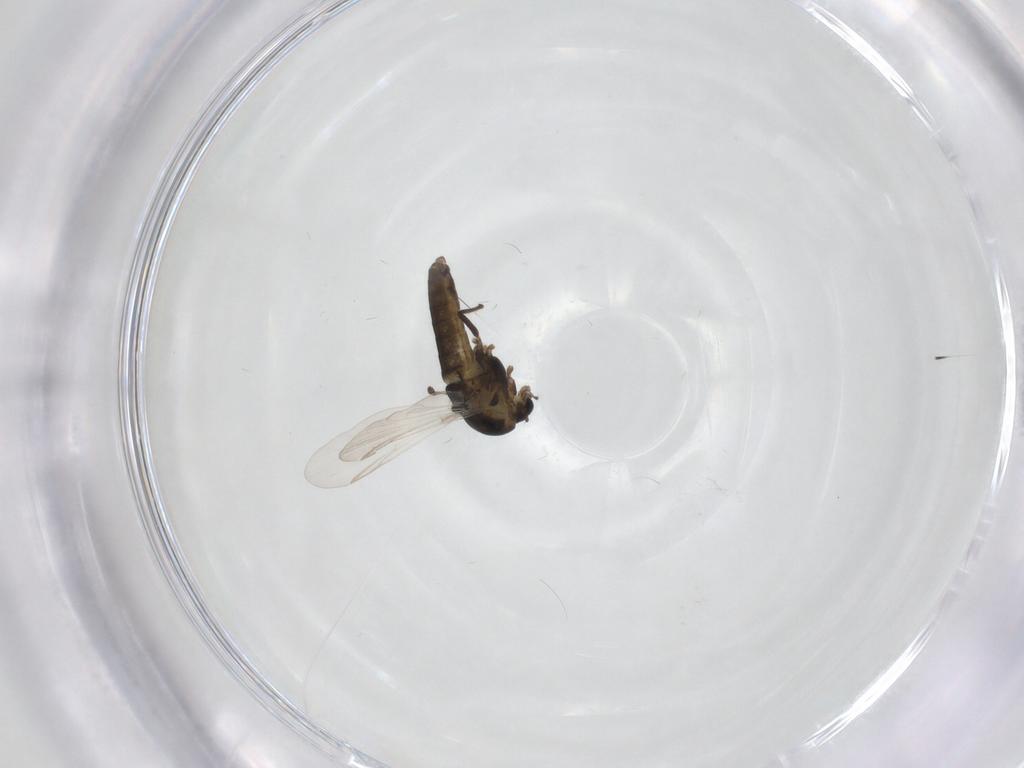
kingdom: Animalia
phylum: Arthropoda
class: Insecta
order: Diptera
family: Chironomidae
